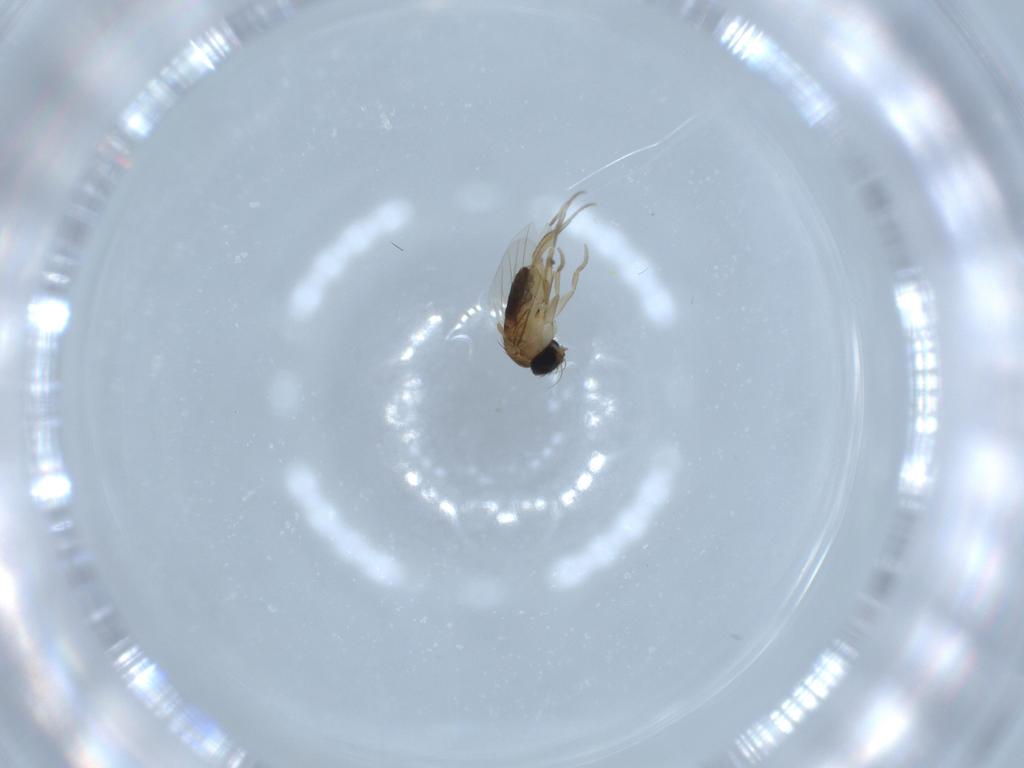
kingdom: Animalia
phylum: Arthropoda
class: Insecta
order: Diptera
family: Phoridae
